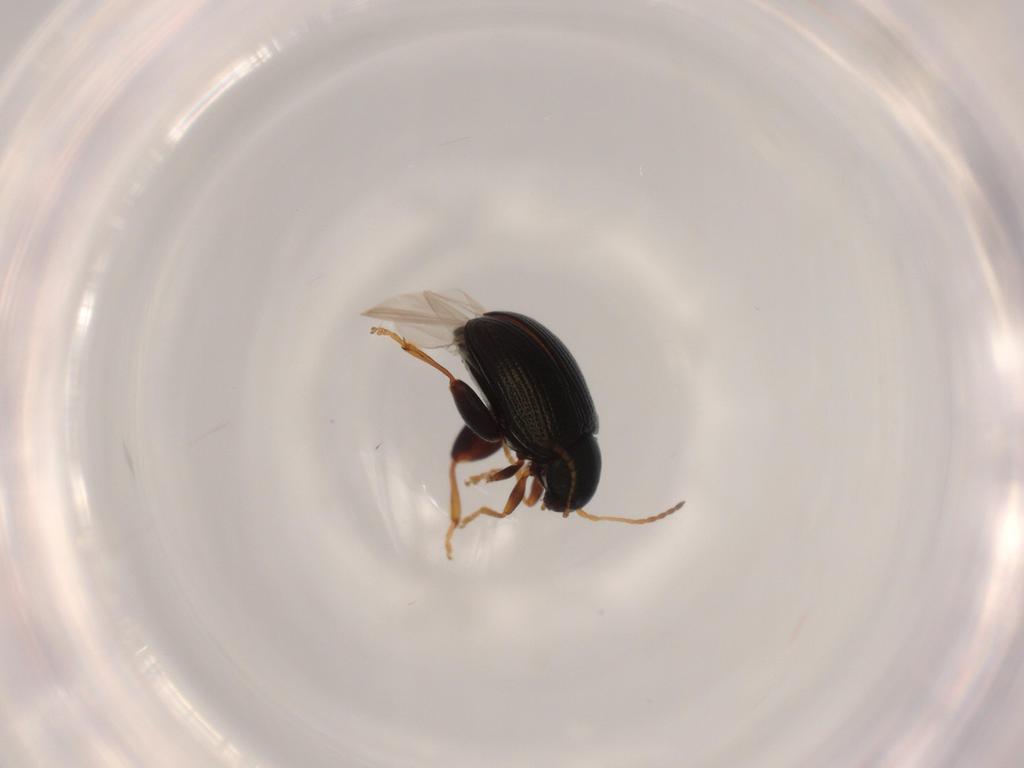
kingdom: Animalia
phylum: Arthropoda
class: Insecta
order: Coleoptera
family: Chrysomelidae
